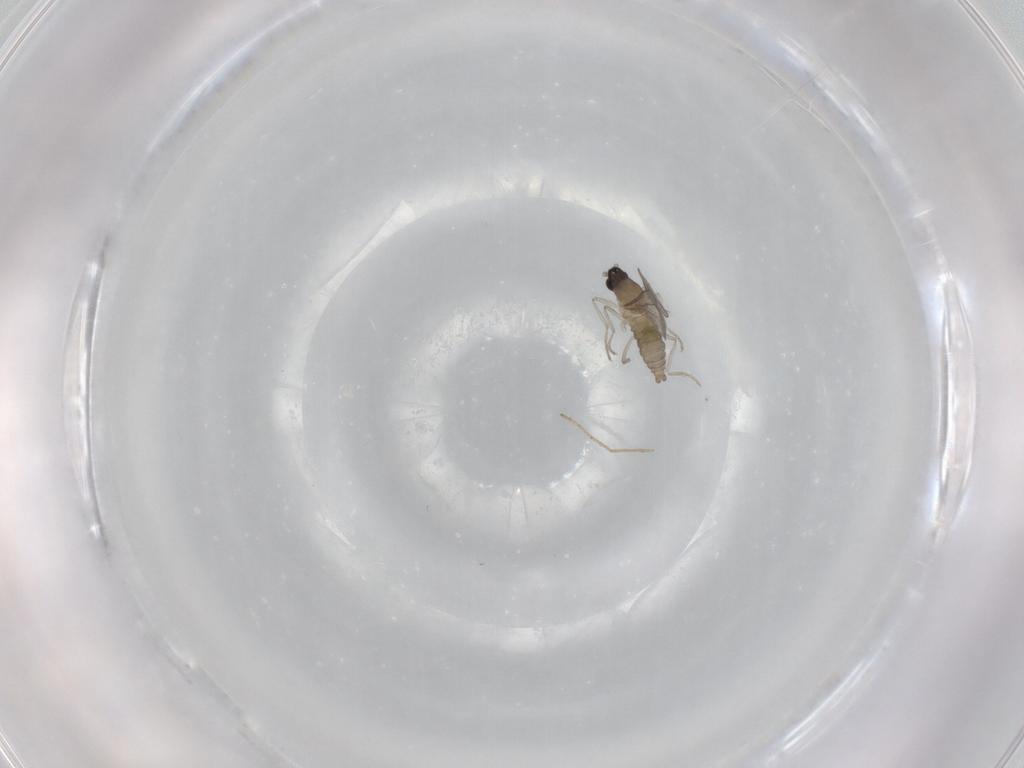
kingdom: Animalia
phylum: Arthropoda
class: Insecta
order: Diptera
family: Cecidomyiidae
